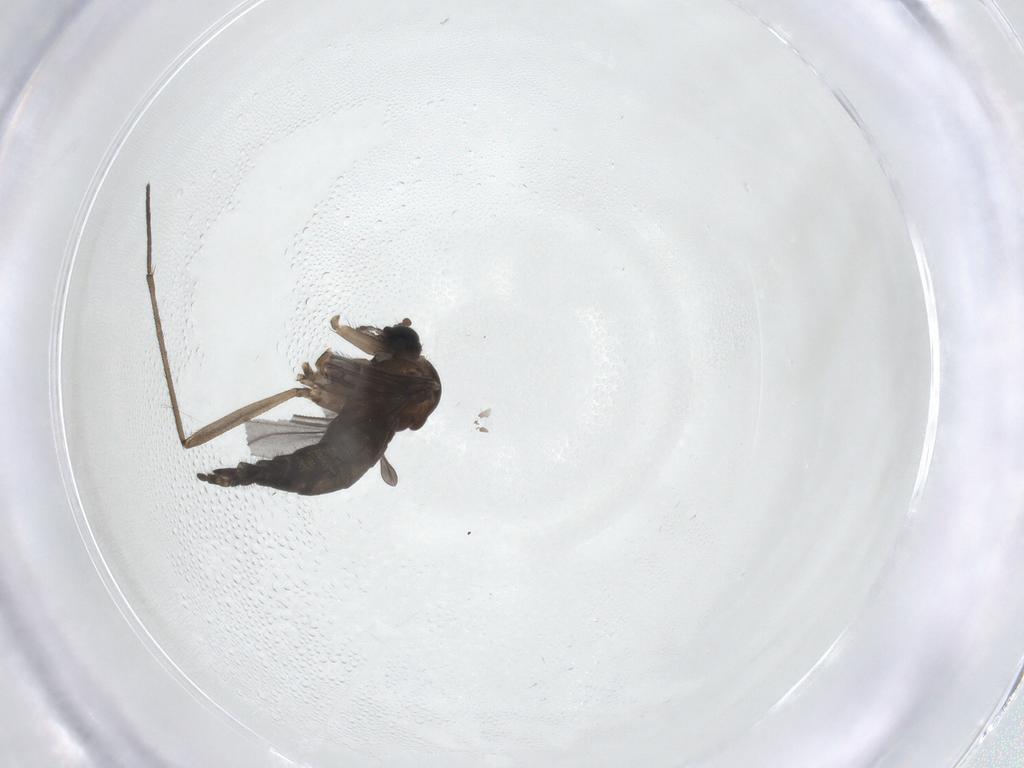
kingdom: Animalia
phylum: Arthropoda
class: Insecta
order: Diptera
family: Sciaridae
